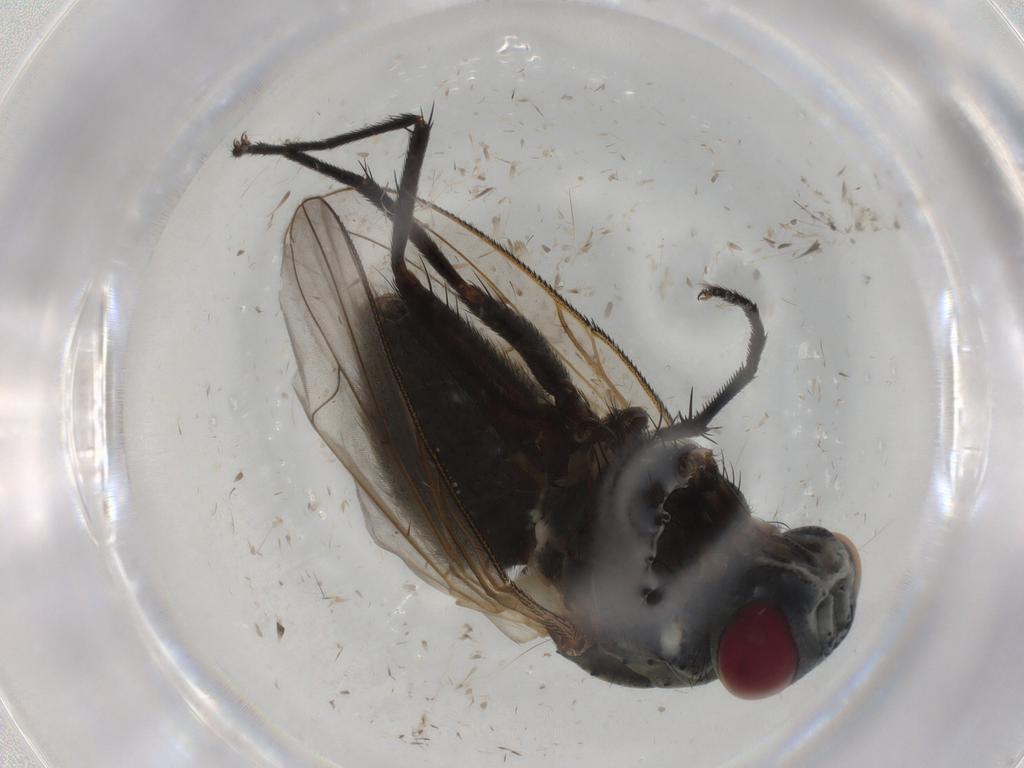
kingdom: Animalia
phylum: Arthropoda
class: Insecta
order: Diptera
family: Muscidae
